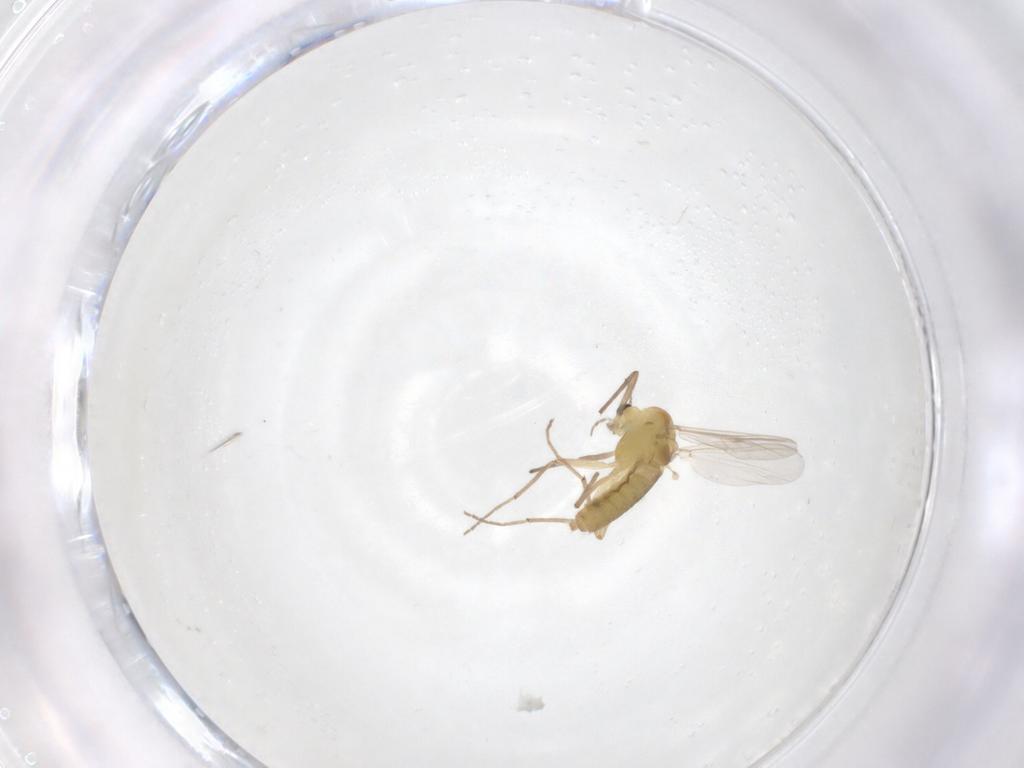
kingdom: Animalia
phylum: Arthropoda
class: Insecta
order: Diptera
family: Chironomidae
